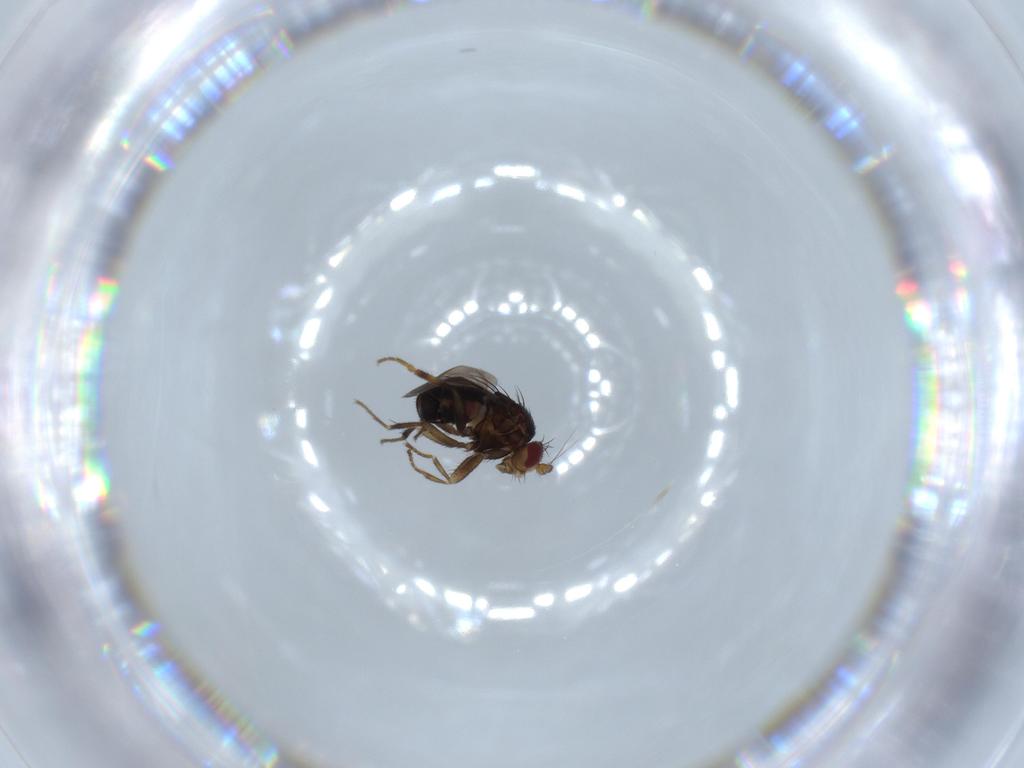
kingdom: Animalia
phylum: Arthropoda
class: Insecta
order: Diptera
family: Sphaeroceridae
